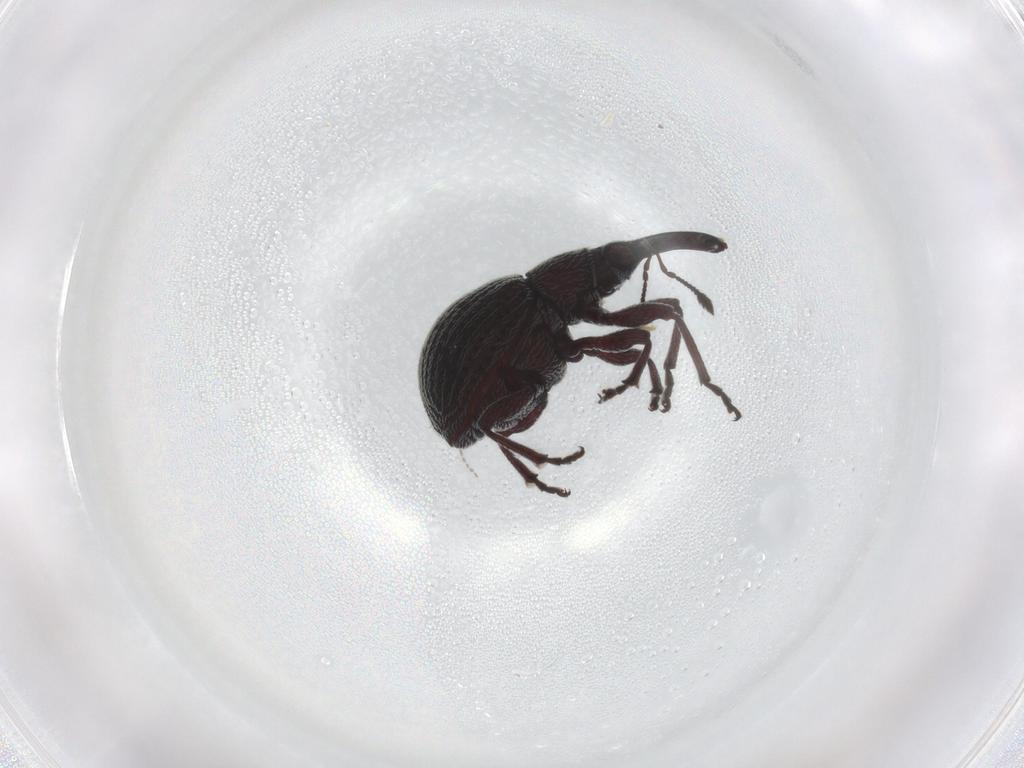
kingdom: Animalia
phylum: Arthropoda
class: Insecta
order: Coleoptera
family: Brentidae
